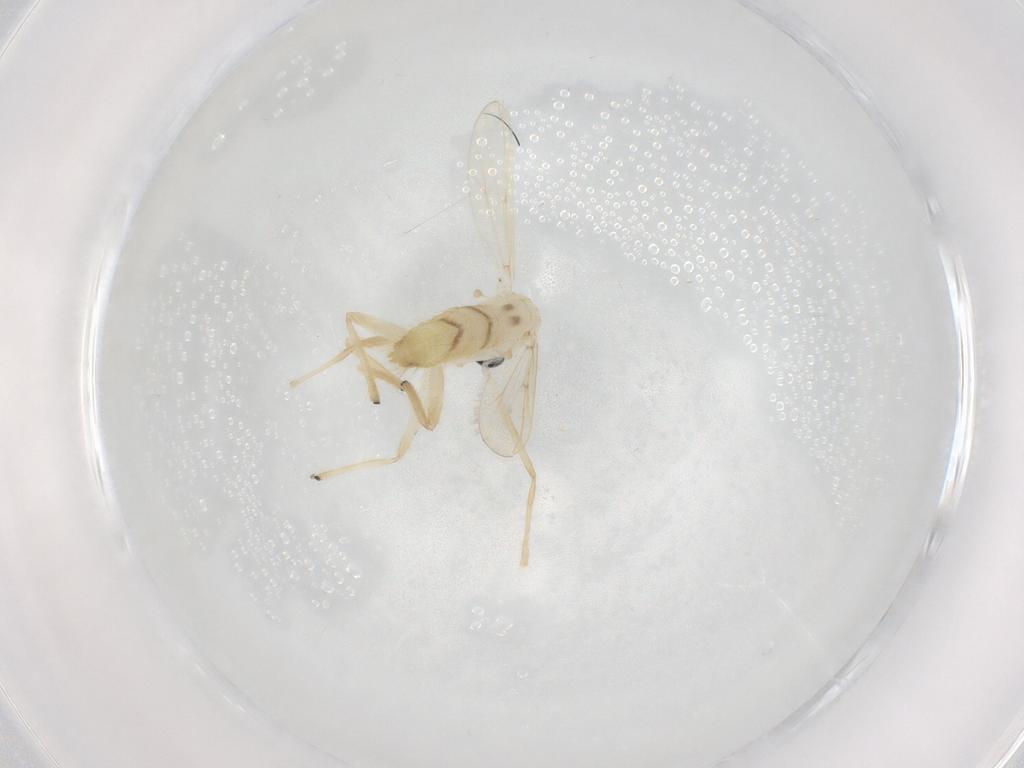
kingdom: Animalia
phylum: Arthropoda
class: Insecta
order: Diptera
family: Chironomidae
